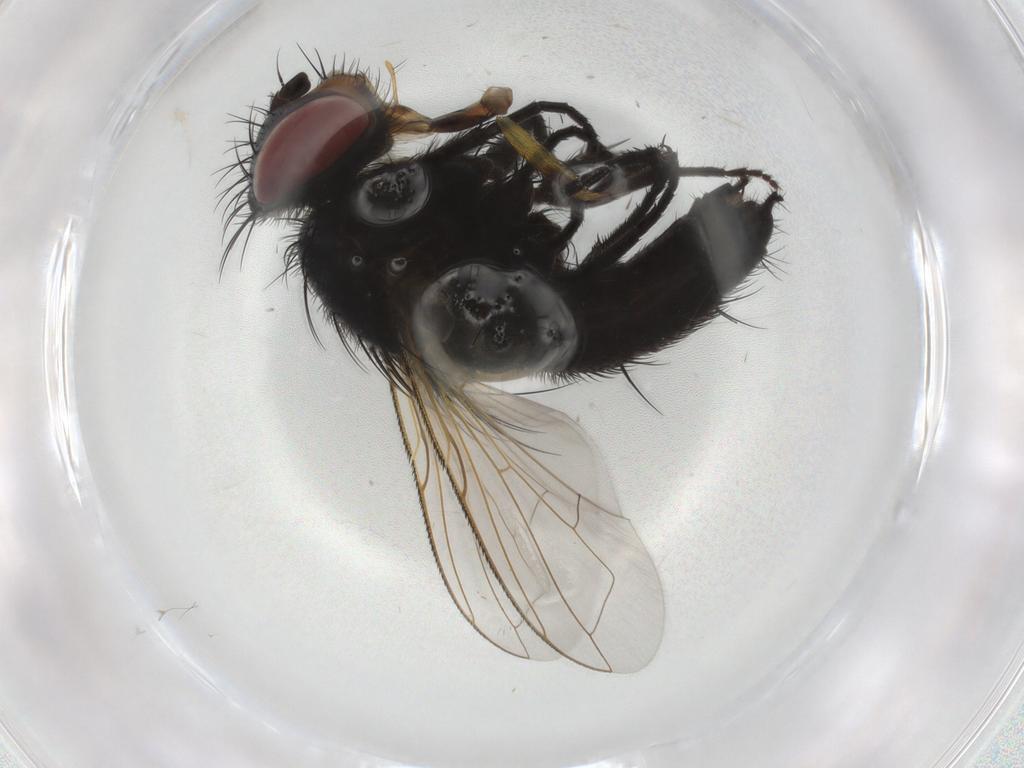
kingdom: Animalia
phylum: Arthropoda
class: Insecta
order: Diptera
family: Tachinidae
